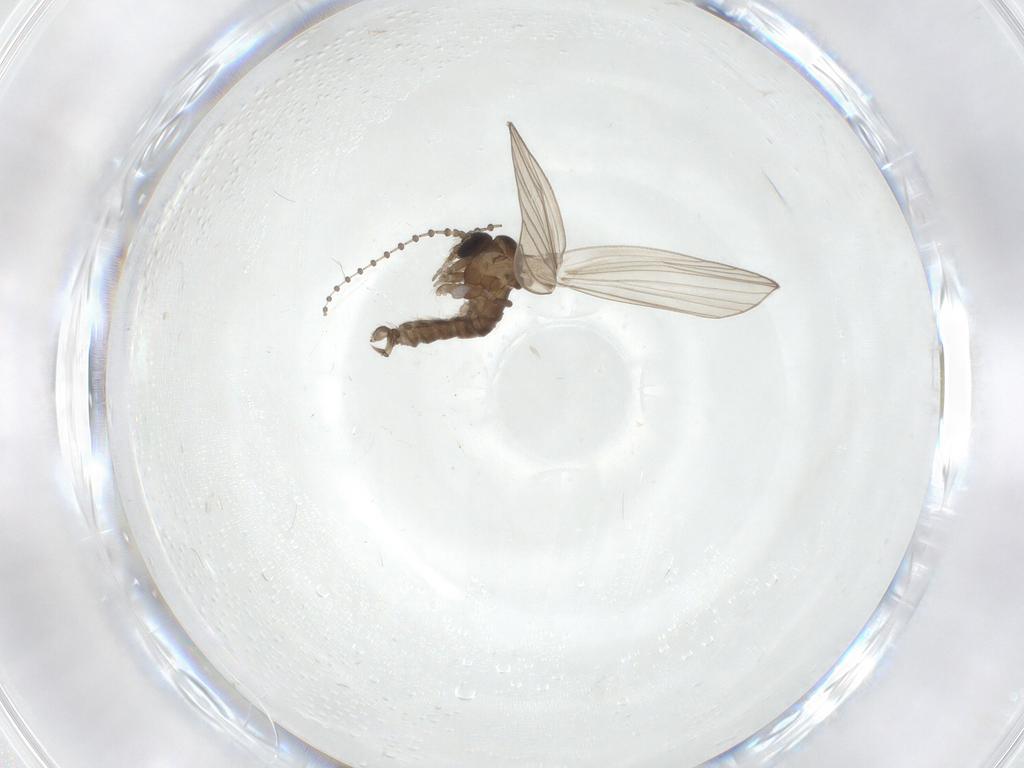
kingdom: Animalia
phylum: Arthropoda
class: Insecta
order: Diptera
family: Psychodidae
